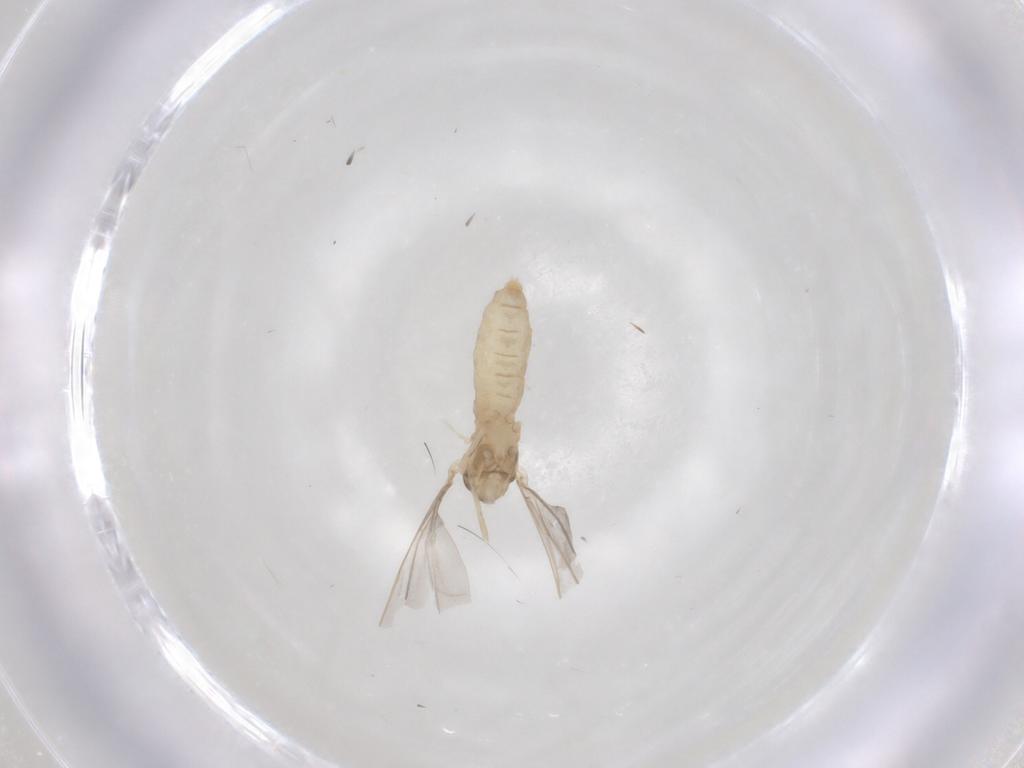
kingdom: Animalia
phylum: Arthropoda
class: Insecta
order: Diptera
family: Cecidomyiidae
